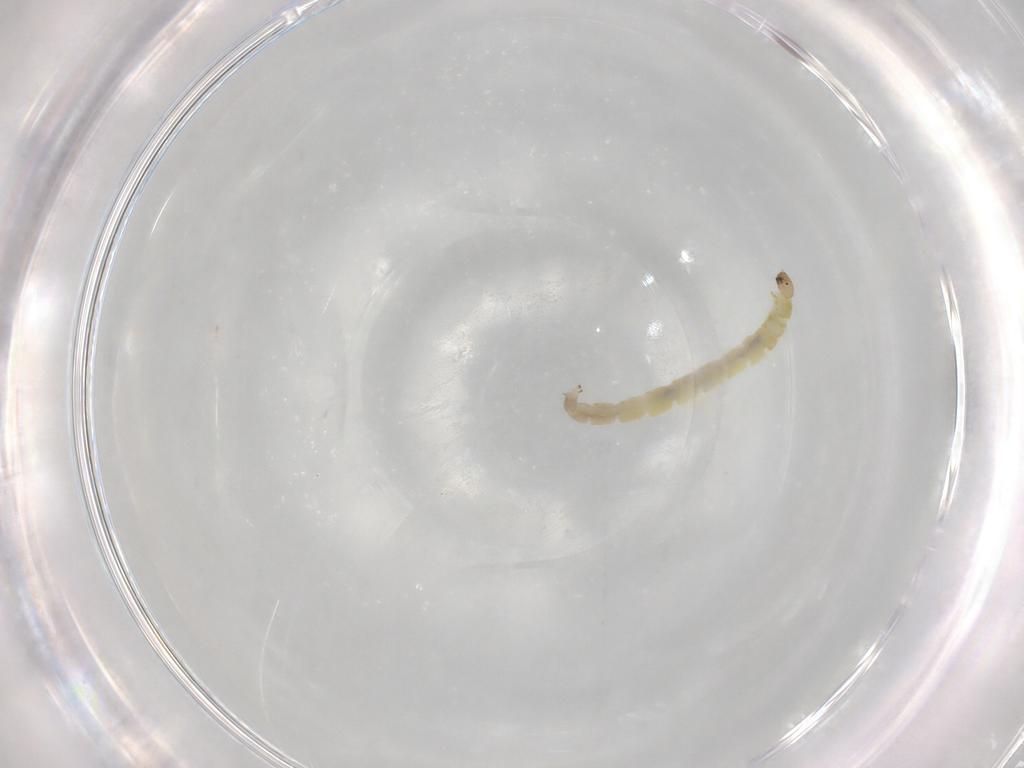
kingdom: Animalia
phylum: Arthropoda
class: Insecta
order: Diptera
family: Chironomidae
